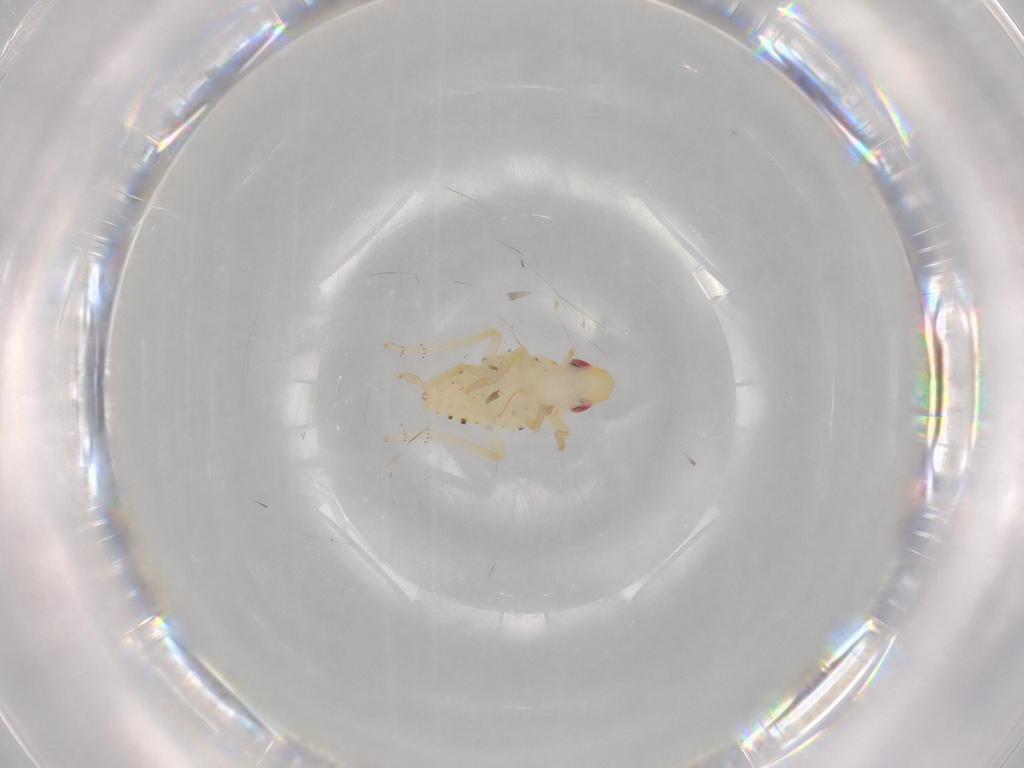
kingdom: Animalia
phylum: Arthropoda
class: Insecta
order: Hemiptera
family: Tropiduchidae
